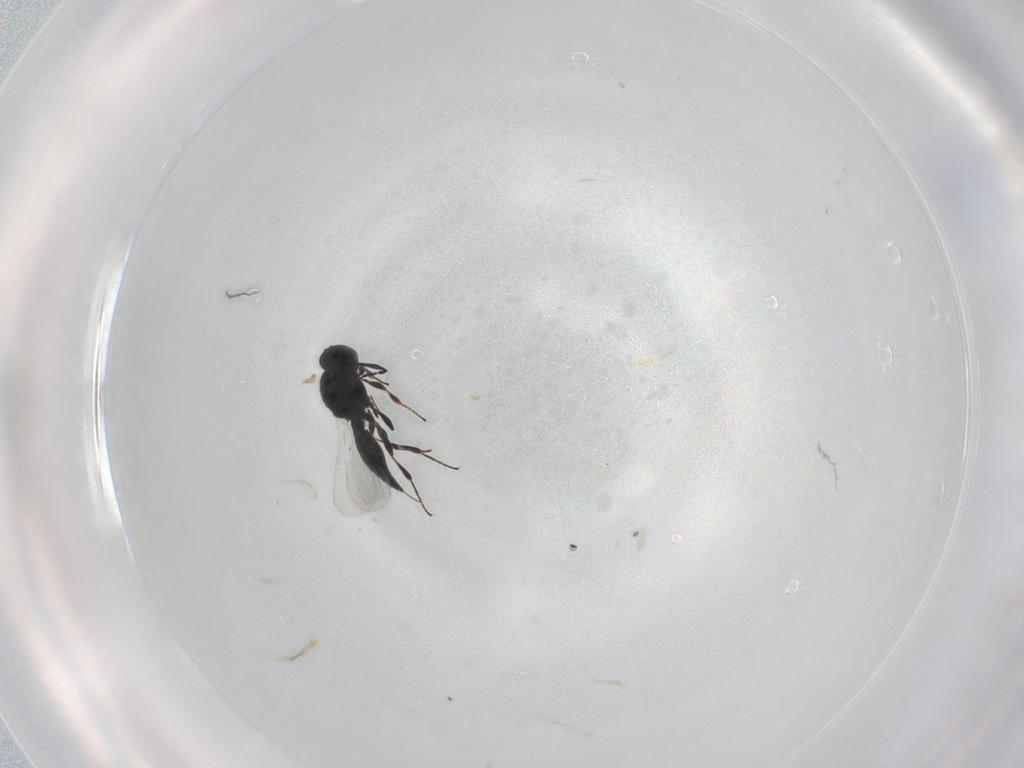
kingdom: Animalia
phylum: Arthropoda
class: Insecta
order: Hymenoptera
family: Platygastridae
